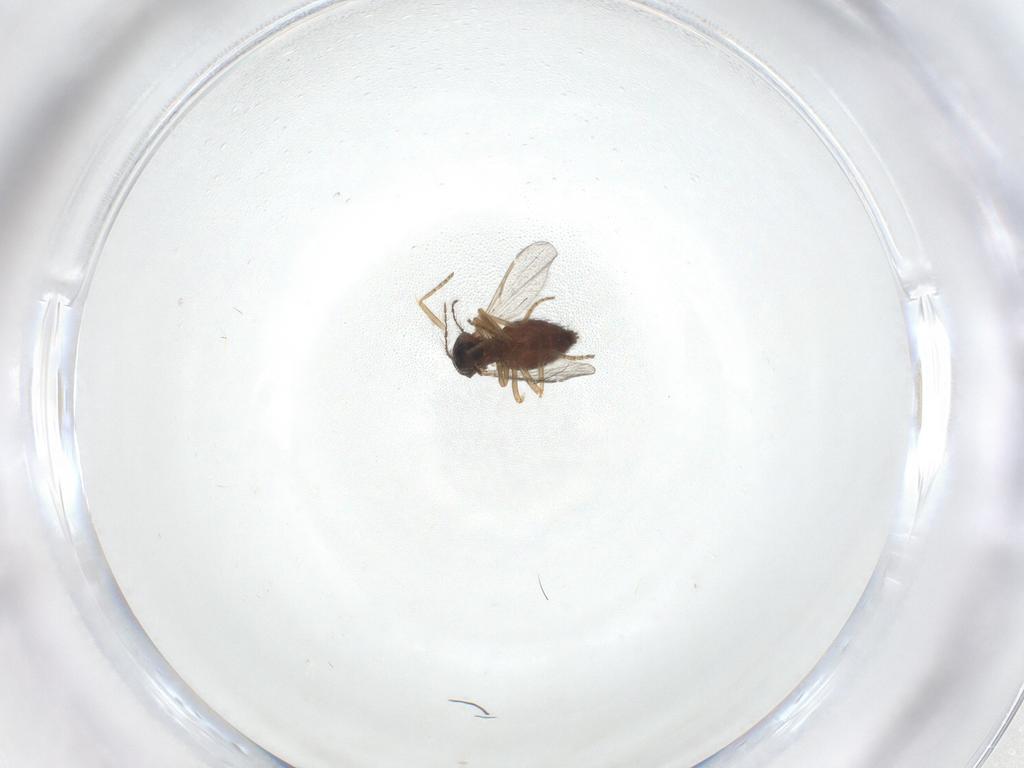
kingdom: Animalia
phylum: Arthropoda
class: Insecta
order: Diptera
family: Ceratopogonidae
